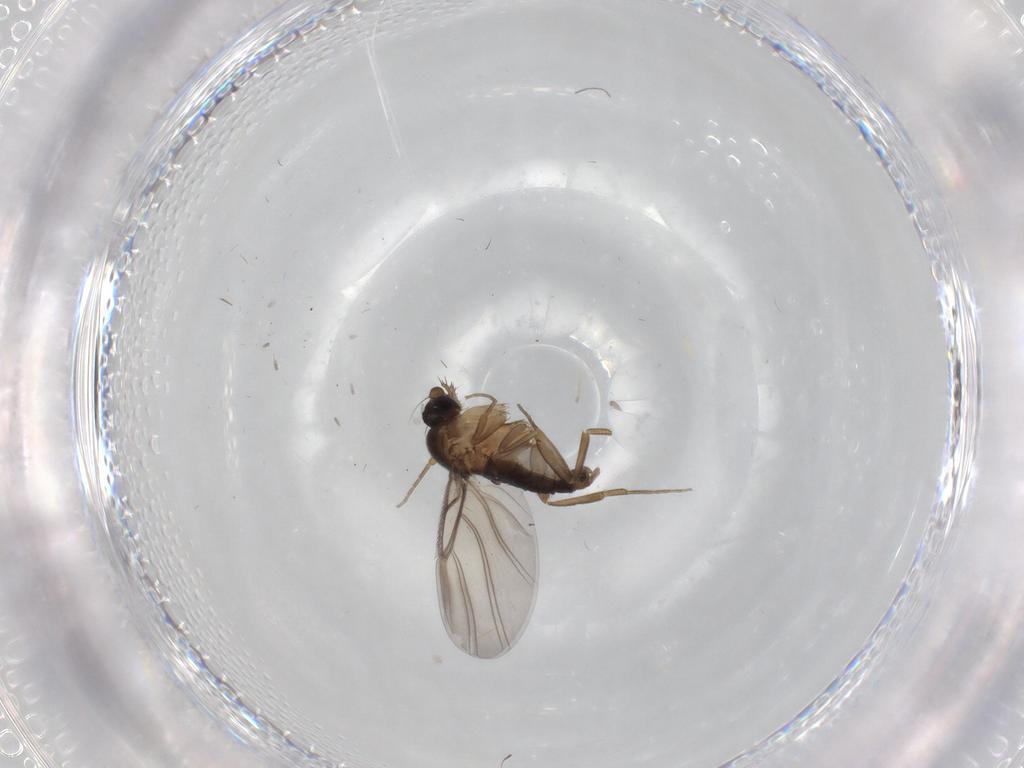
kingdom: Animalia
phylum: Arthropoda
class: Insecta
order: Diptera
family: Phoridae
